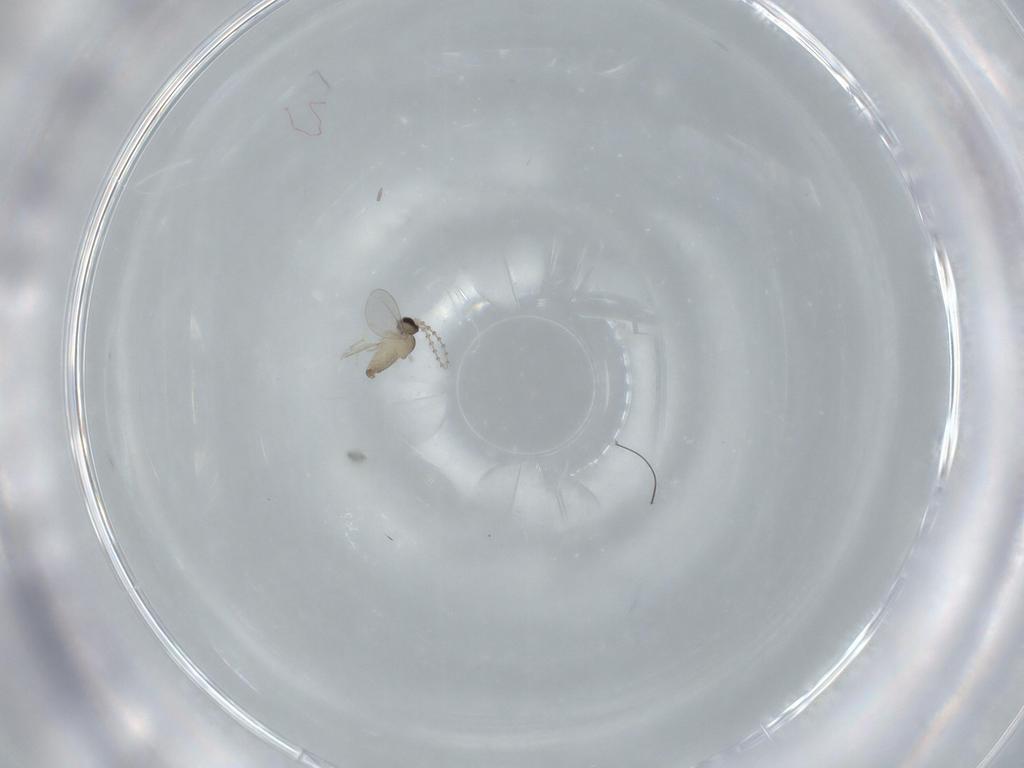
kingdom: Animalia
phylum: Arthropoda
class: Insecta
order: Diptera
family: Cecidomyiidae
